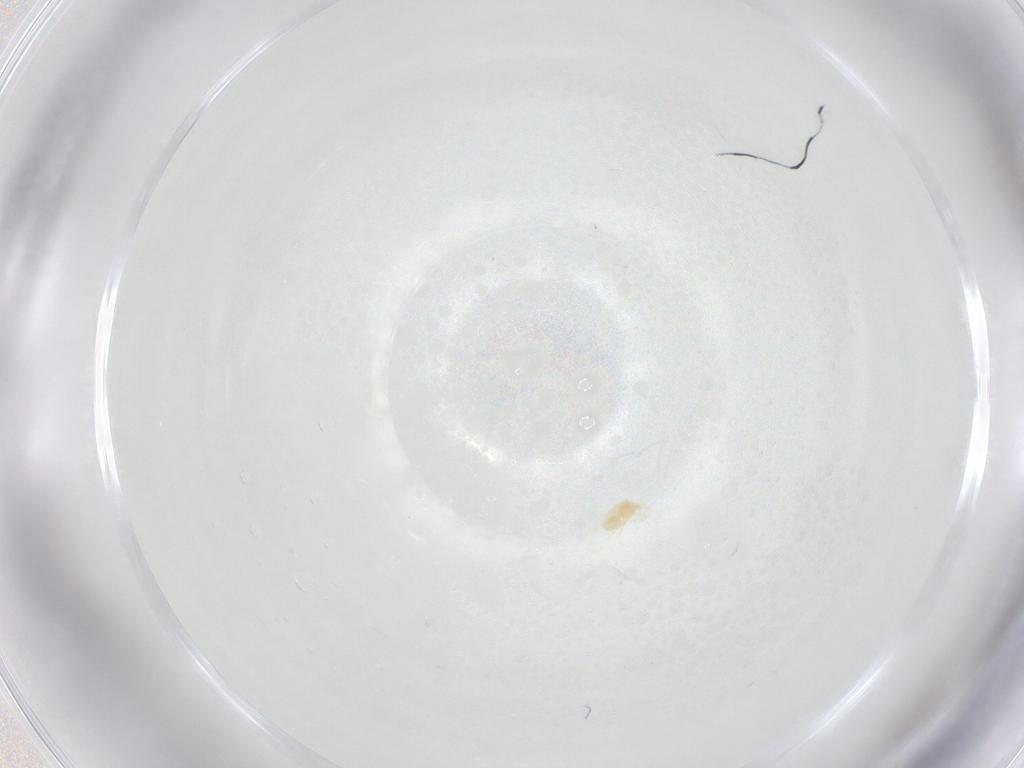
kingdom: Animalia
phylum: Arthropoda
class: Arachnida
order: Trombidiformes
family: Tetranychidae
